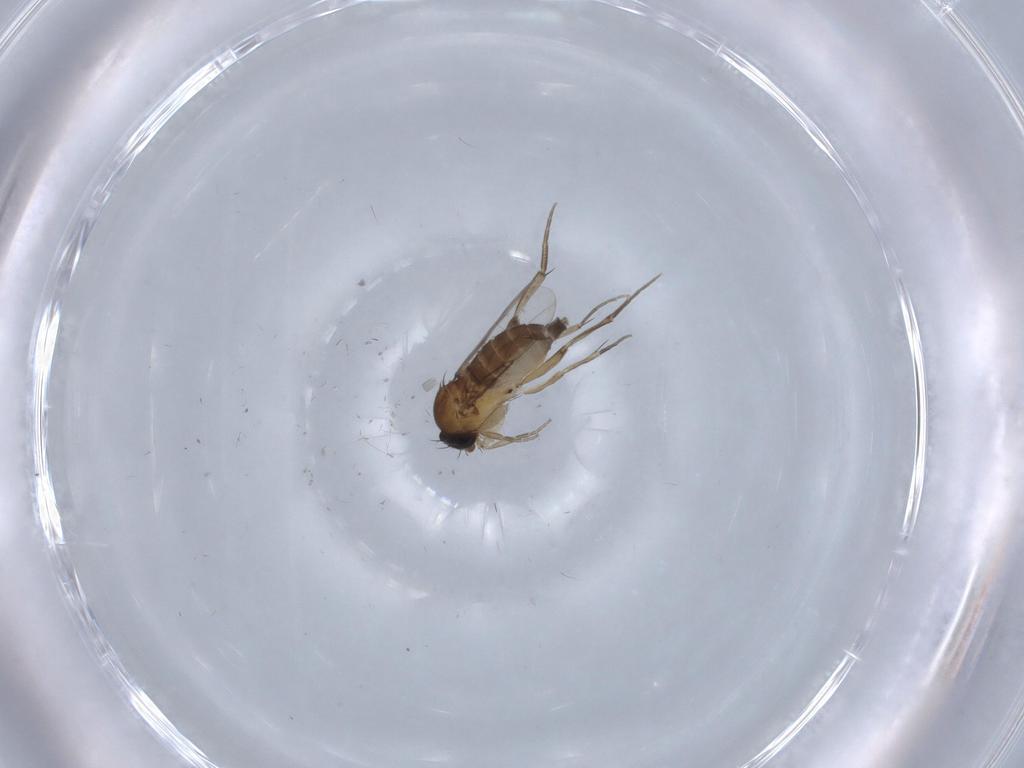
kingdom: Animalia
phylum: Arthropoda
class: Insecta
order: Diptera
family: Phoridae
